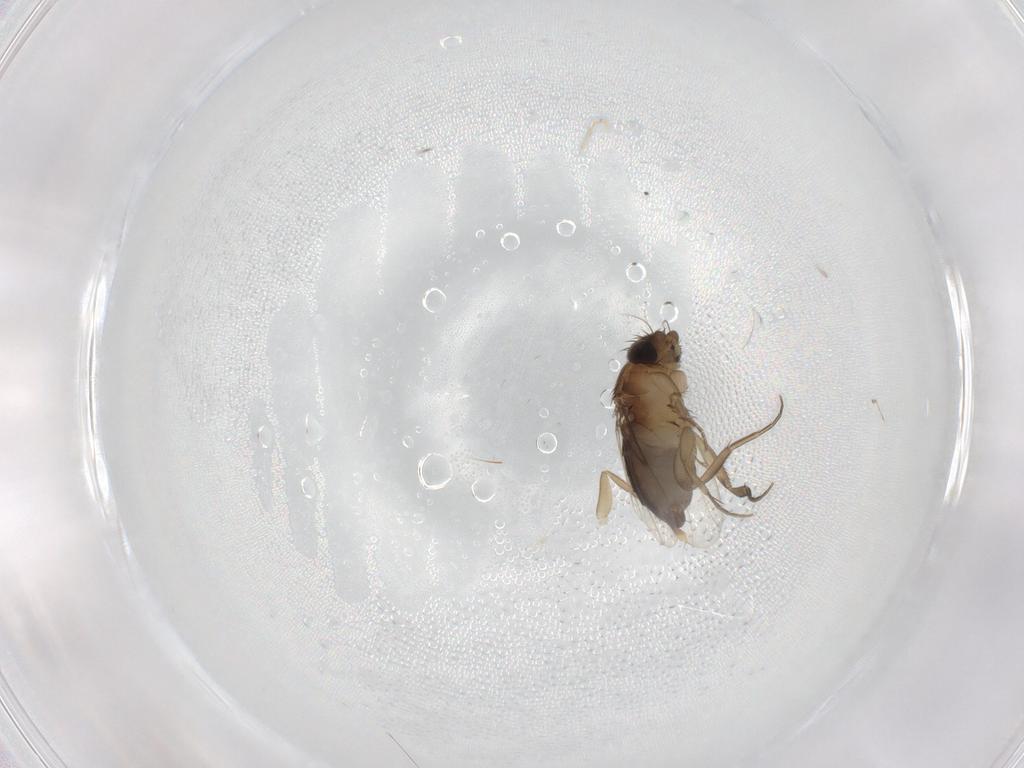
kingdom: Animalia
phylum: Arthropoda
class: Insecta
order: Diptera
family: Phoridae
